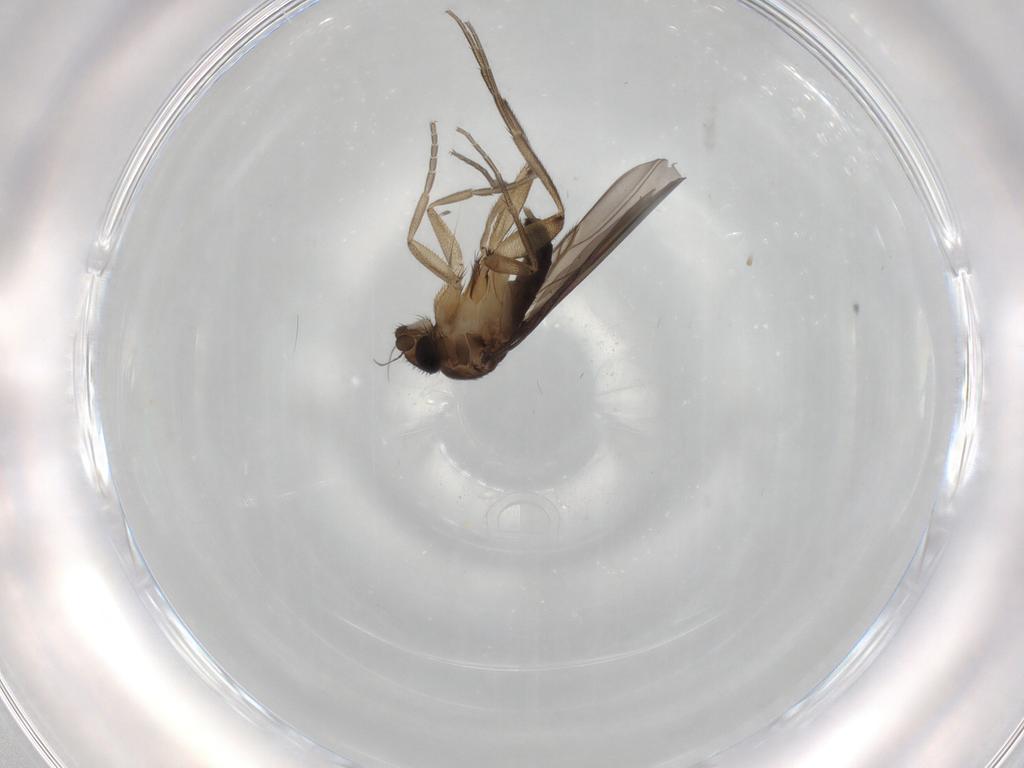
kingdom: Animalia
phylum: Arthropoda
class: Insecta
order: Diptera
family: Phoridae
